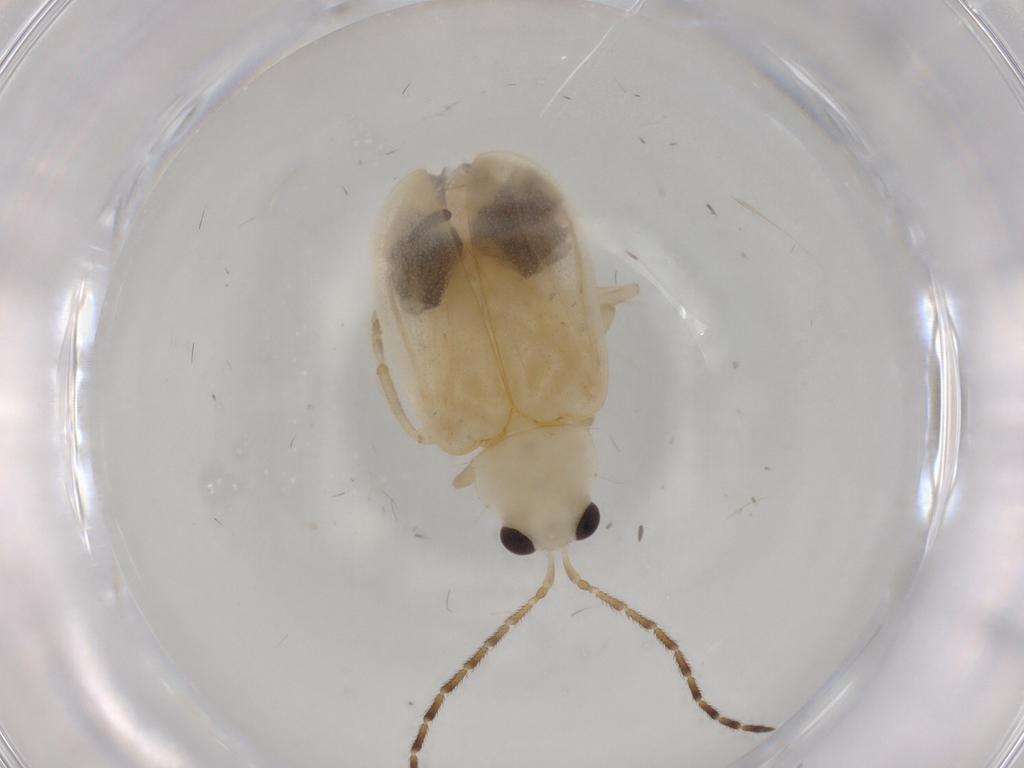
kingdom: Animalia
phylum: Arthropoda
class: Insecta
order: Coleoptera
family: Chrysomelidae
